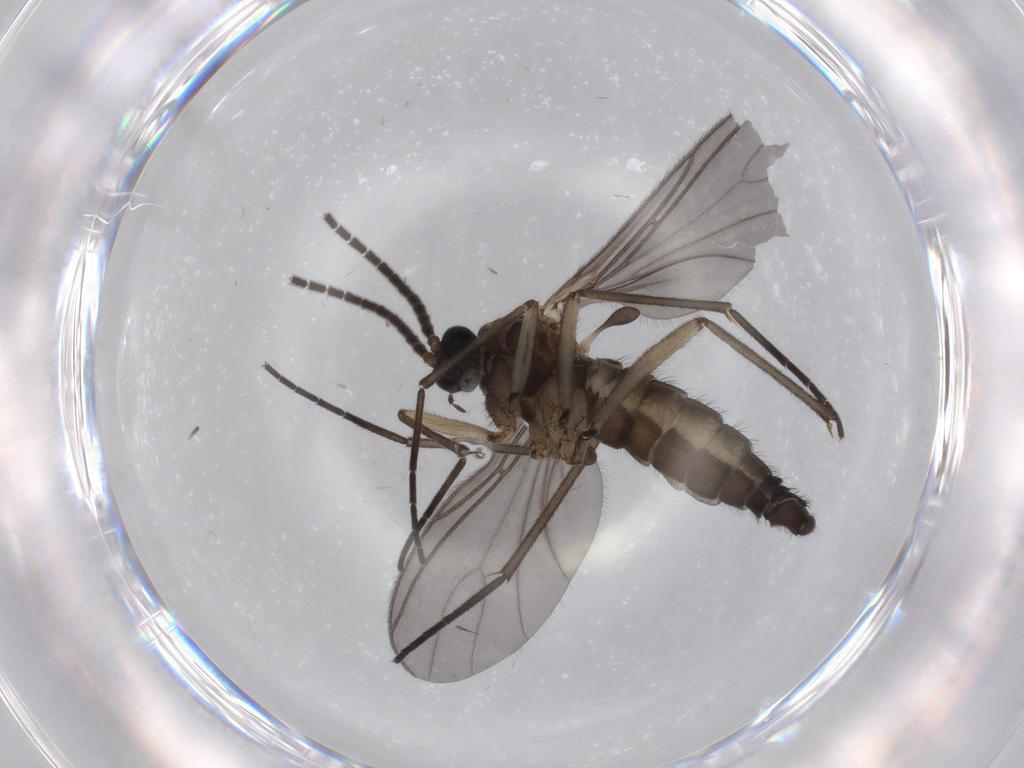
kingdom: Animalia
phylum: Arthropoda
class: Insecta
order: Diptera
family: Sciaridae
